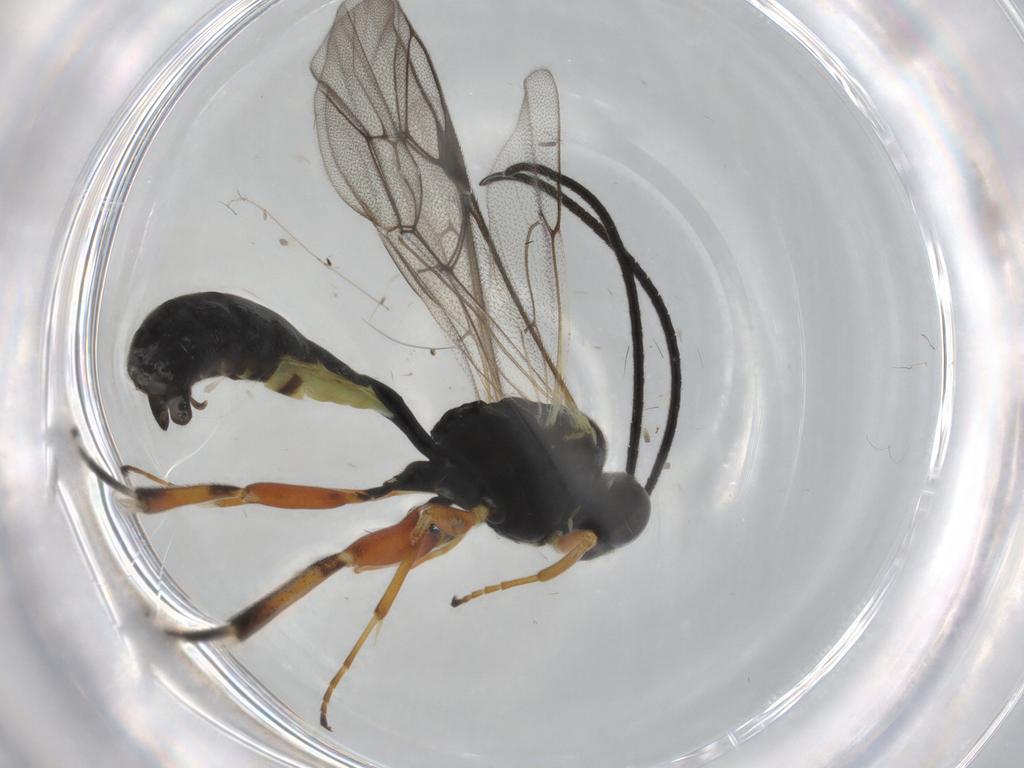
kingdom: Animalia
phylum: Arthropoda
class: Insecta
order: Hymenoptera
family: Ichneumonidae
